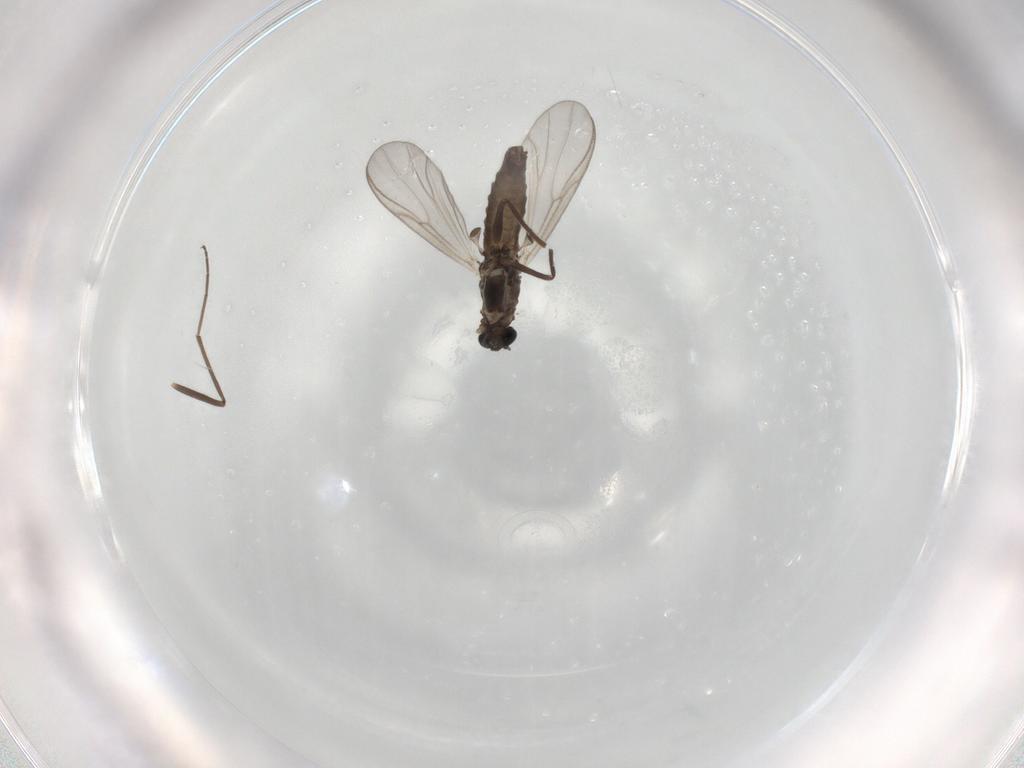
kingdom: Animalia
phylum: Arthropoda
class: Insecta
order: Diptera
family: Chironomidae
